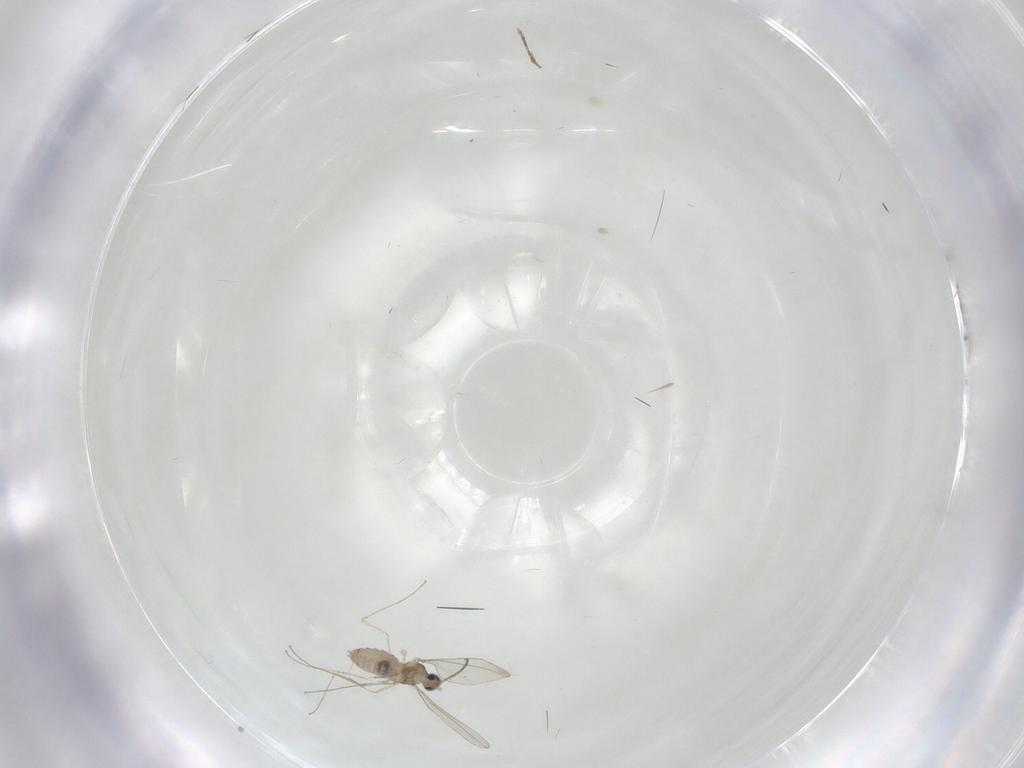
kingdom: Animalia
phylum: Arthropoda
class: Insecta
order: Diptera
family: Cecidomyiidae
